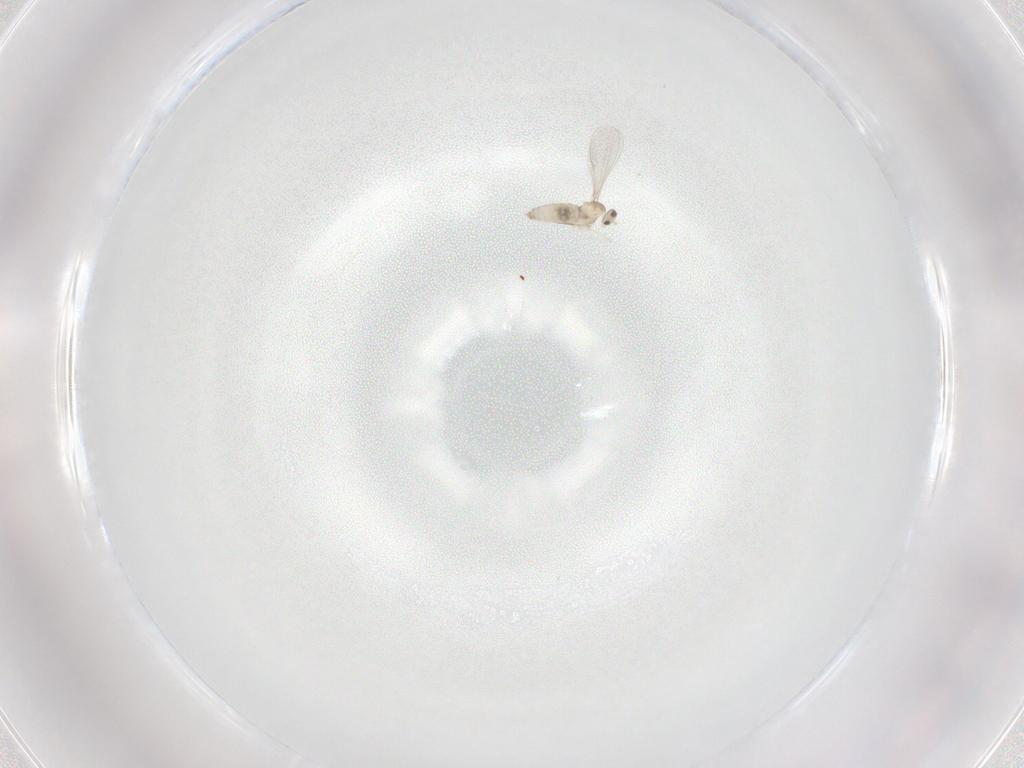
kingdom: Animalia
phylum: Arthropoda
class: Insecta
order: Diptera
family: Cecidomyiidae
